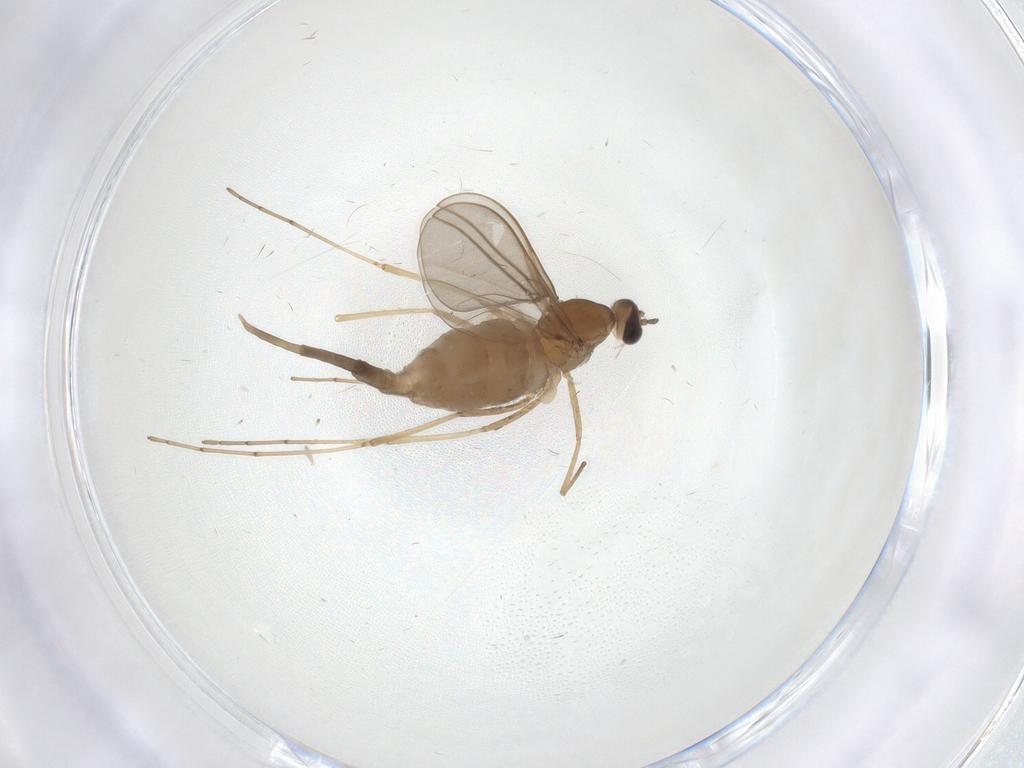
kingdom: Animalia
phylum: Arthropoda
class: Insecta
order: Diptera
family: Cecidomyiidae
